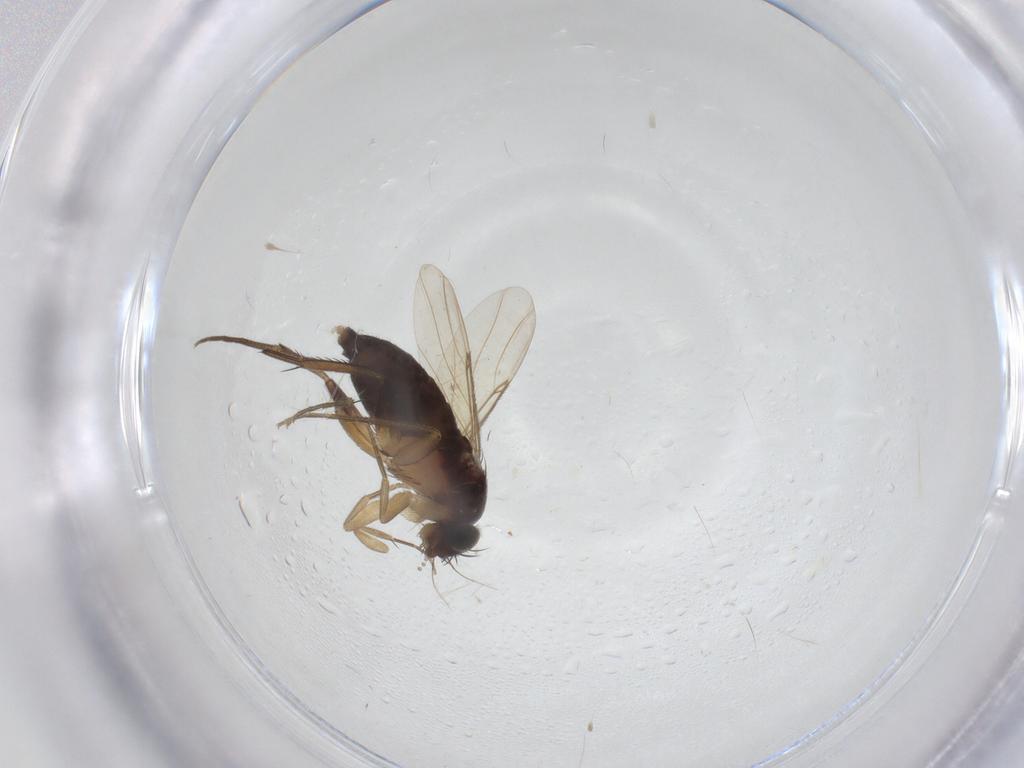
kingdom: Animalia
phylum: Arthropoda
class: Insecta
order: Diptera
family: Phoridae
